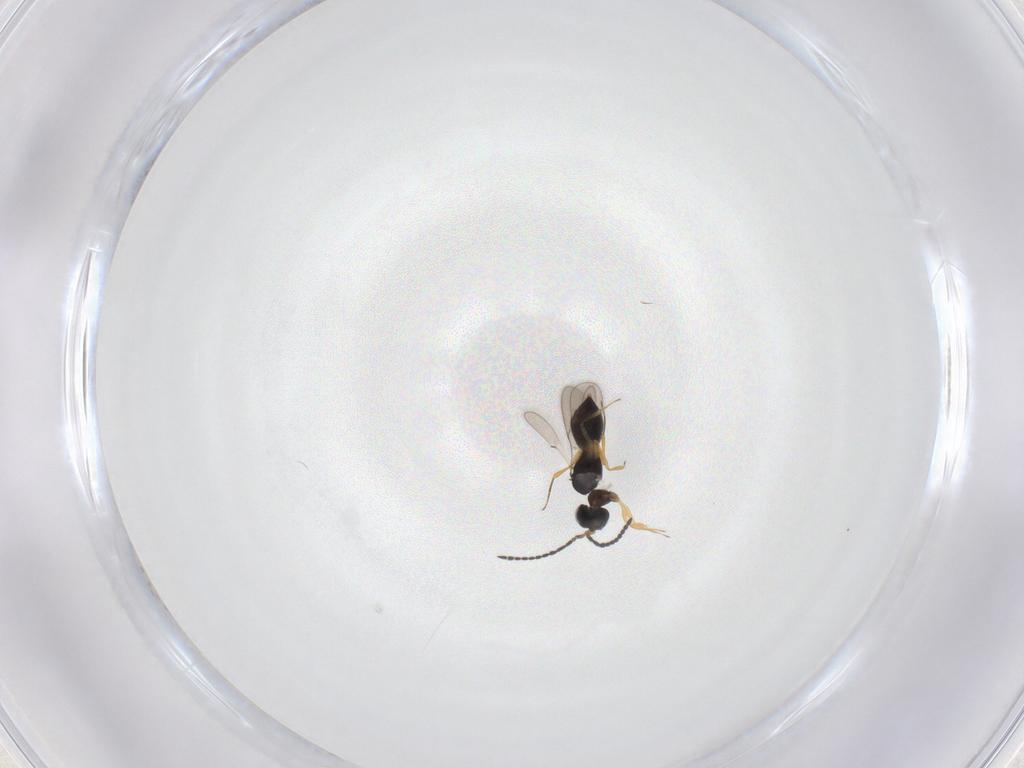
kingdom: Animalia
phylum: Arthropoda
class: Insecta
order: Hymenoptera
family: Scelionidae
